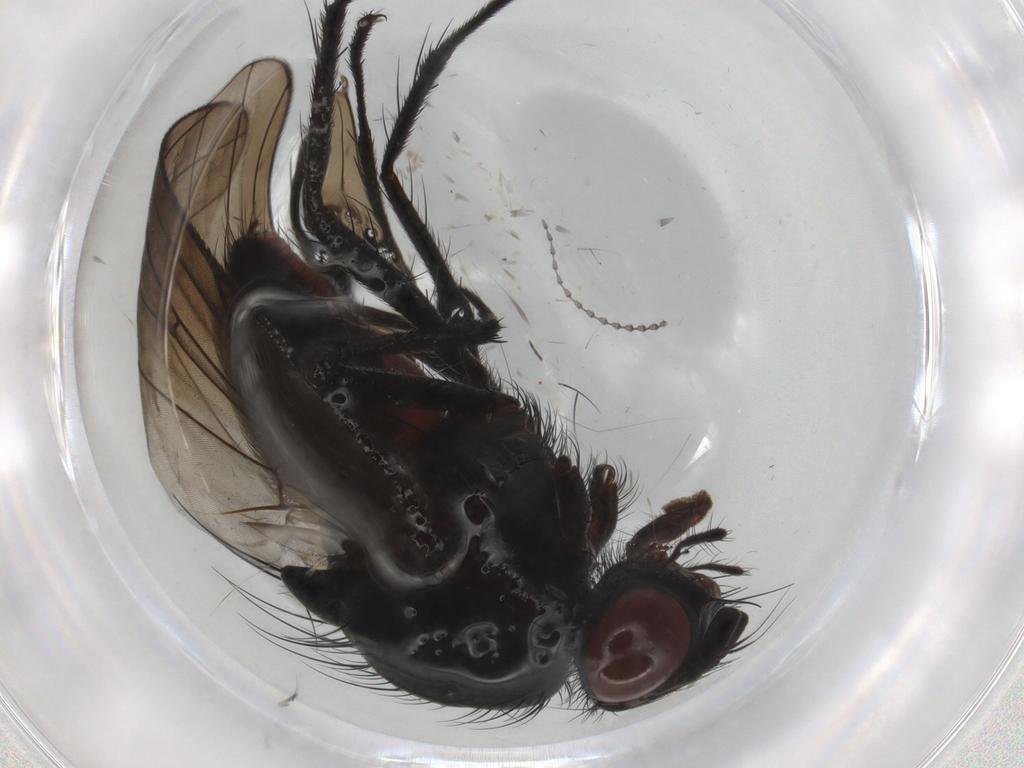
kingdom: Animalia
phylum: Arthropoda
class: Insecta
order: Diptera
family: Anthomyiidae
